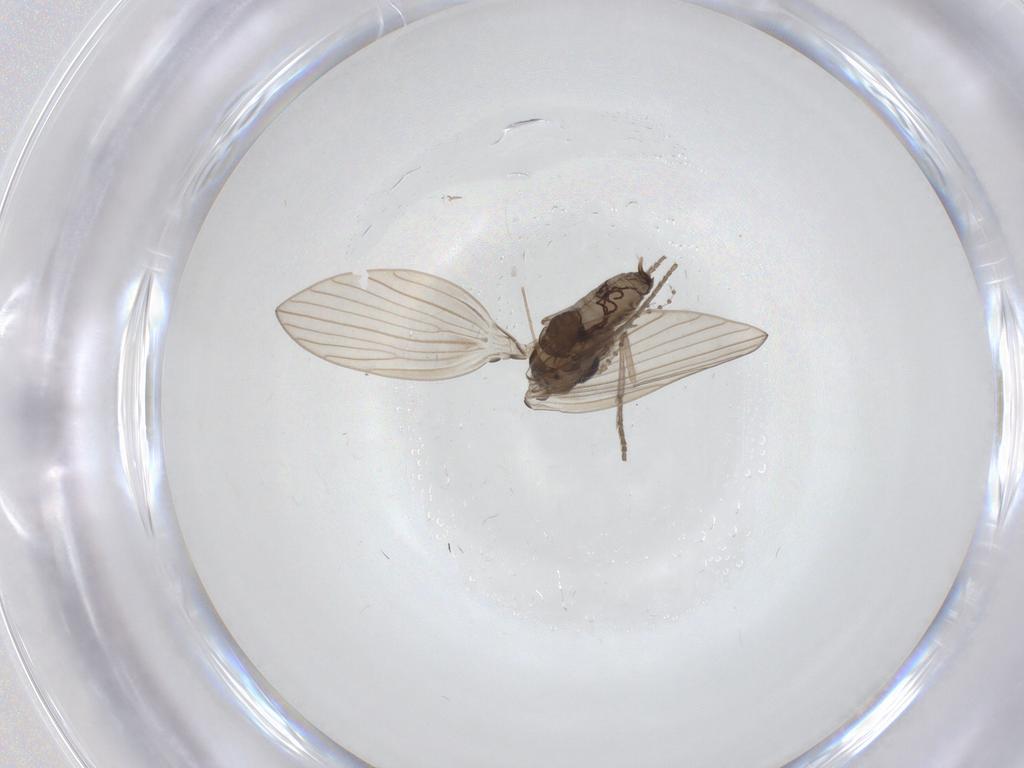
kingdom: Animalia
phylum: Arthropoda
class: Insecta
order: Diptera
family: Psychodidae
